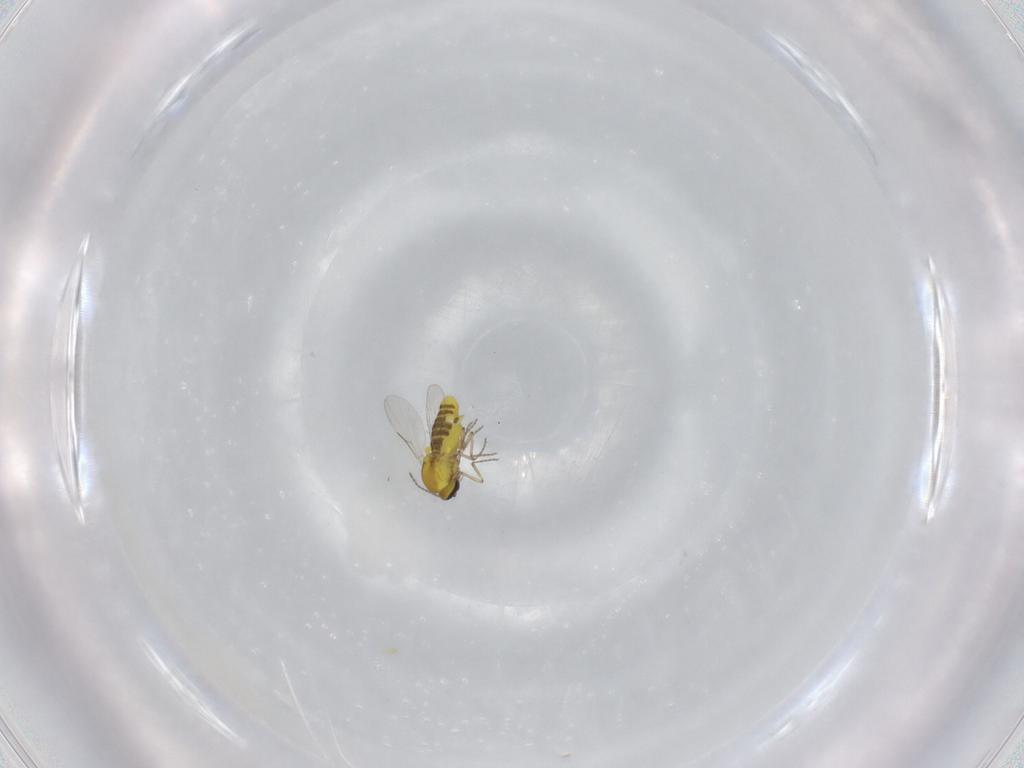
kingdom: Animalia
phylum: Arthropoda
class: Insecta
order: Diptera
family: Ceratopogonidae
